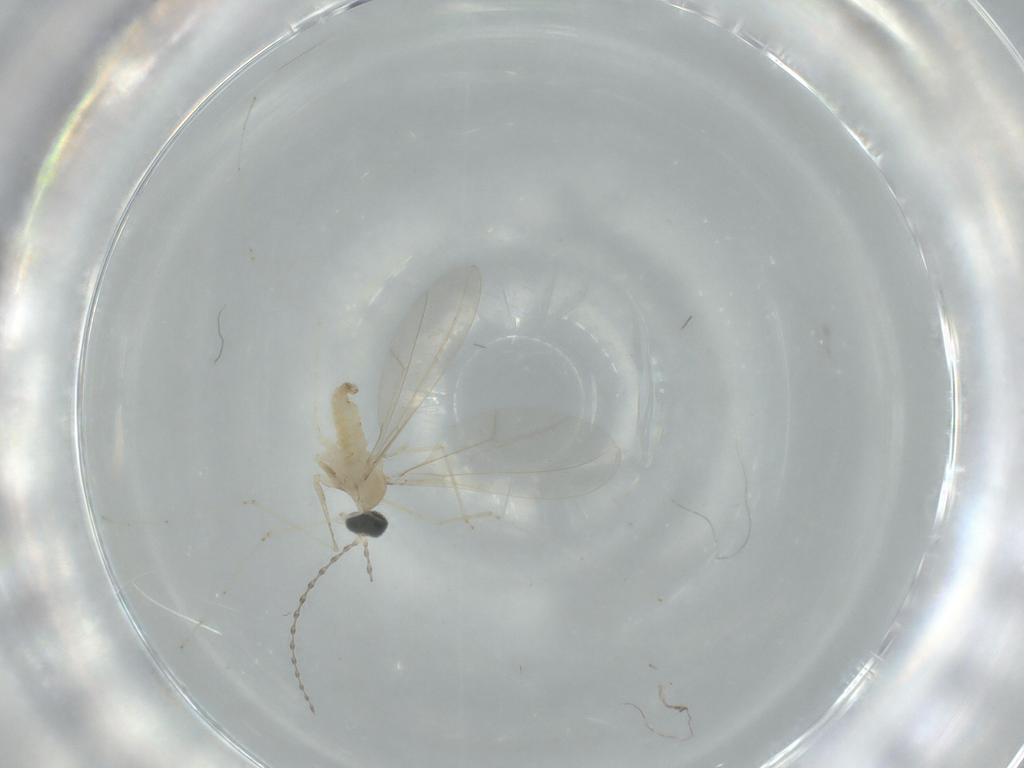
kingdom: Animalia
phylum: Arthropoda
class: Insecta
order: Diptera
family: Cecidomyiidae
